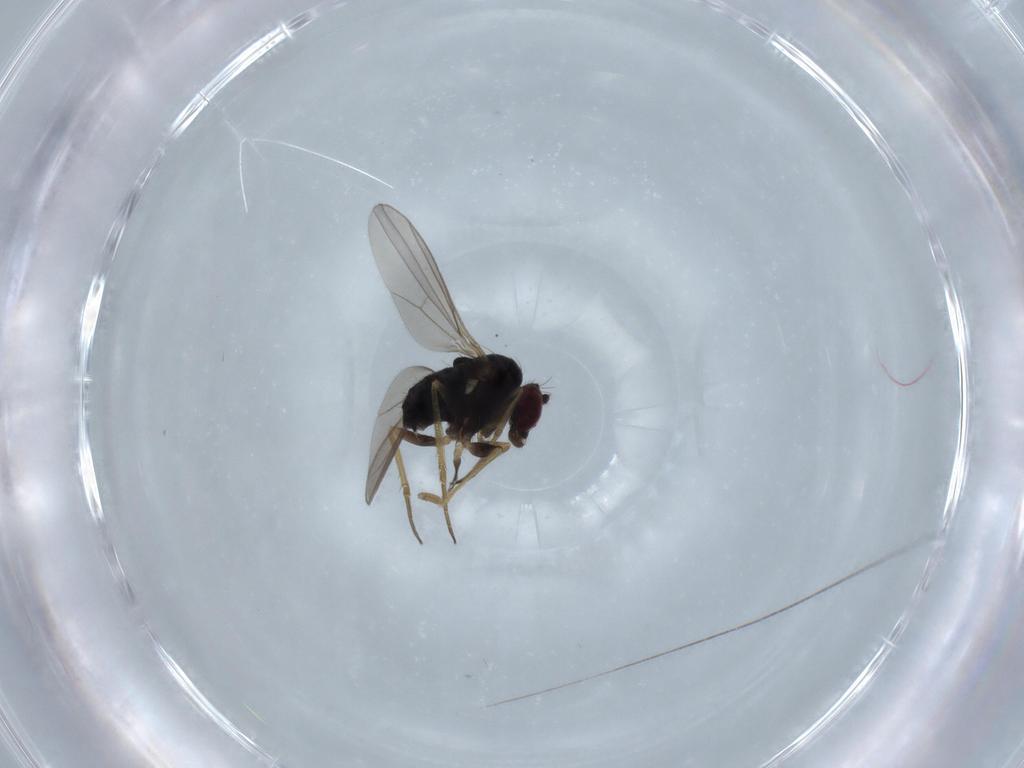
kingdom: Animalia
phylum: Arthropoda
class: Insecta
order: Diptera
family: Dolichopodidae
